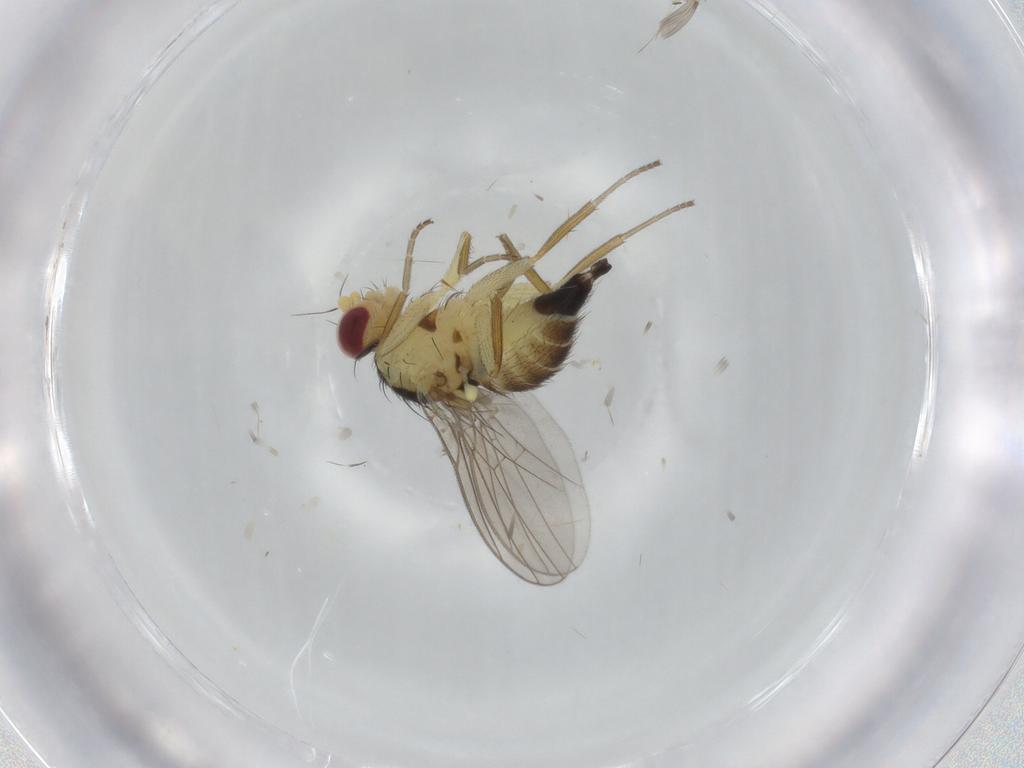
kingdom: Animalia
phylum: Arthropoda
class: Insecta
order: Diptera
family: Agromyzidae
